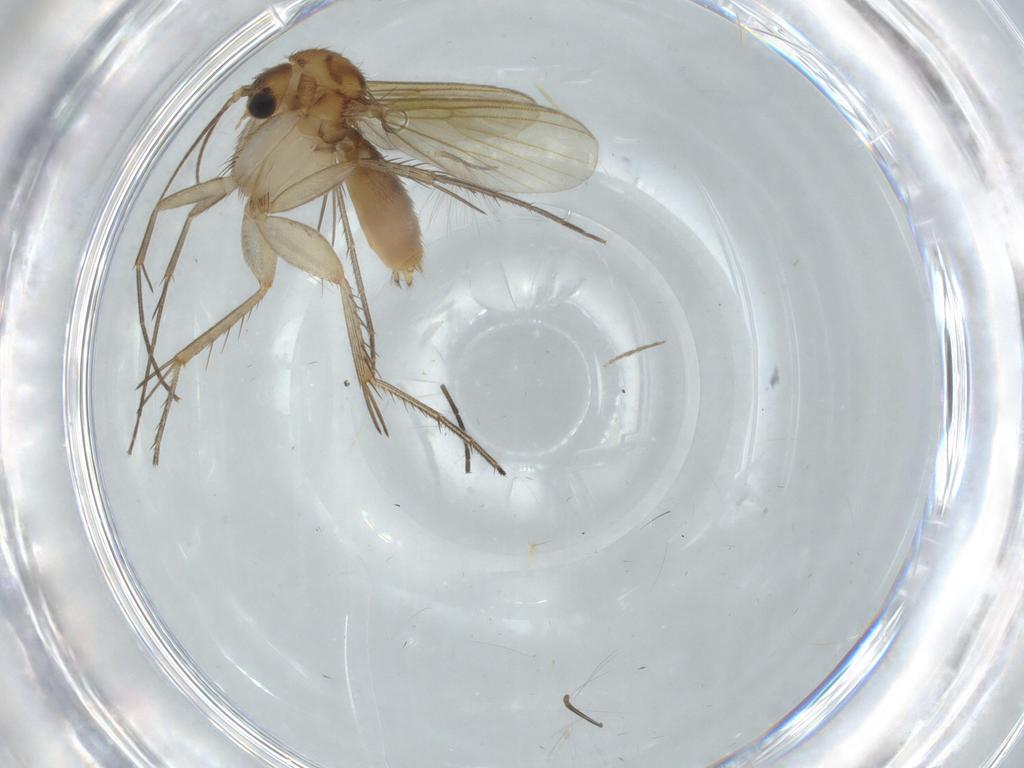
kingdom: Animalia
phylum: Arthropoda
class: Insecta
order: Diptera
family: Mycetophilidae
